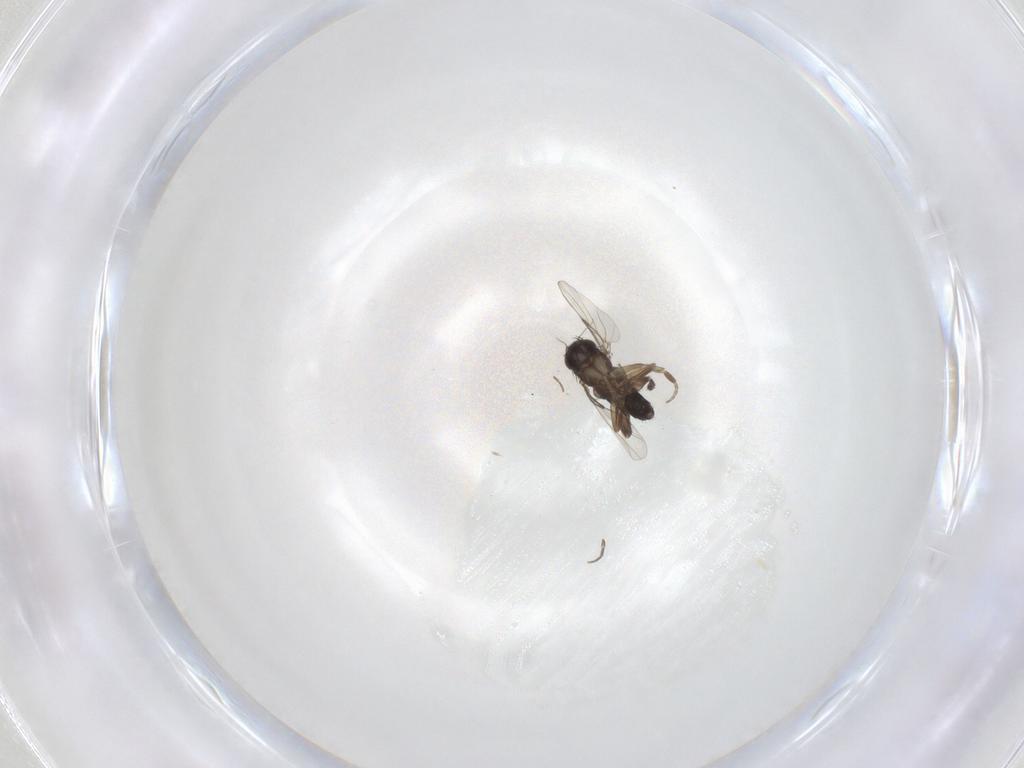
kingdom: Animalia
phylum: Arthropoda
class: Insecta
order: Diptera
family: Phoridae
